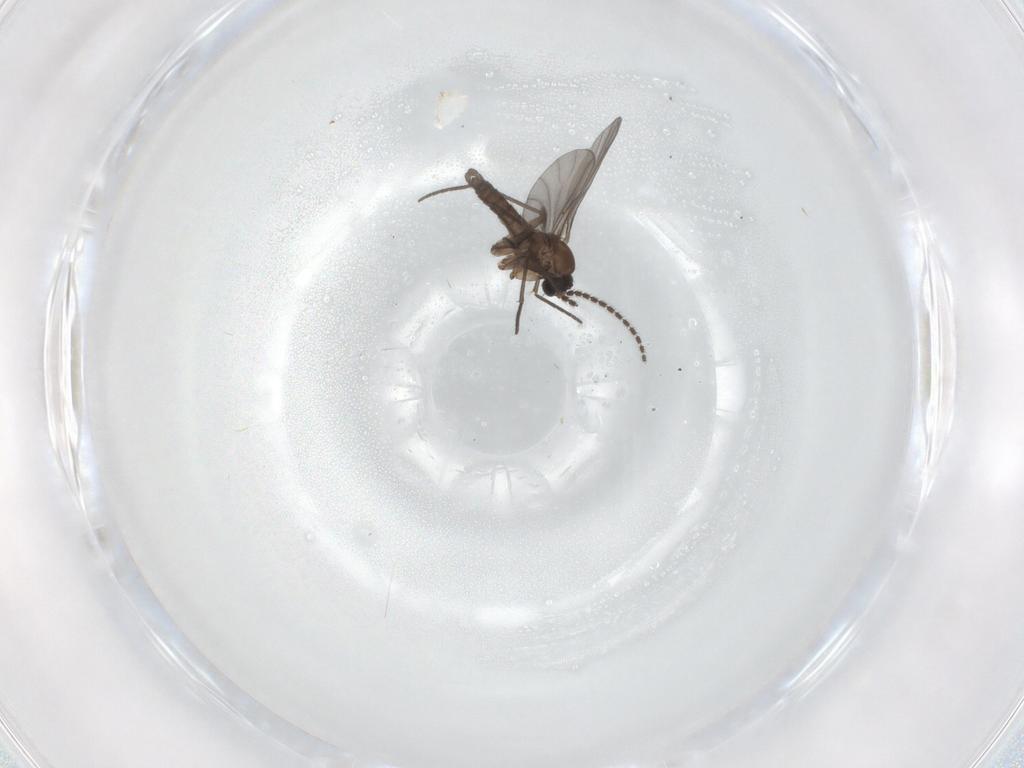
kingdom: Animalia
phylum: Arthropoda
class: Insecta
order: Diptera
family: Sciaridae
